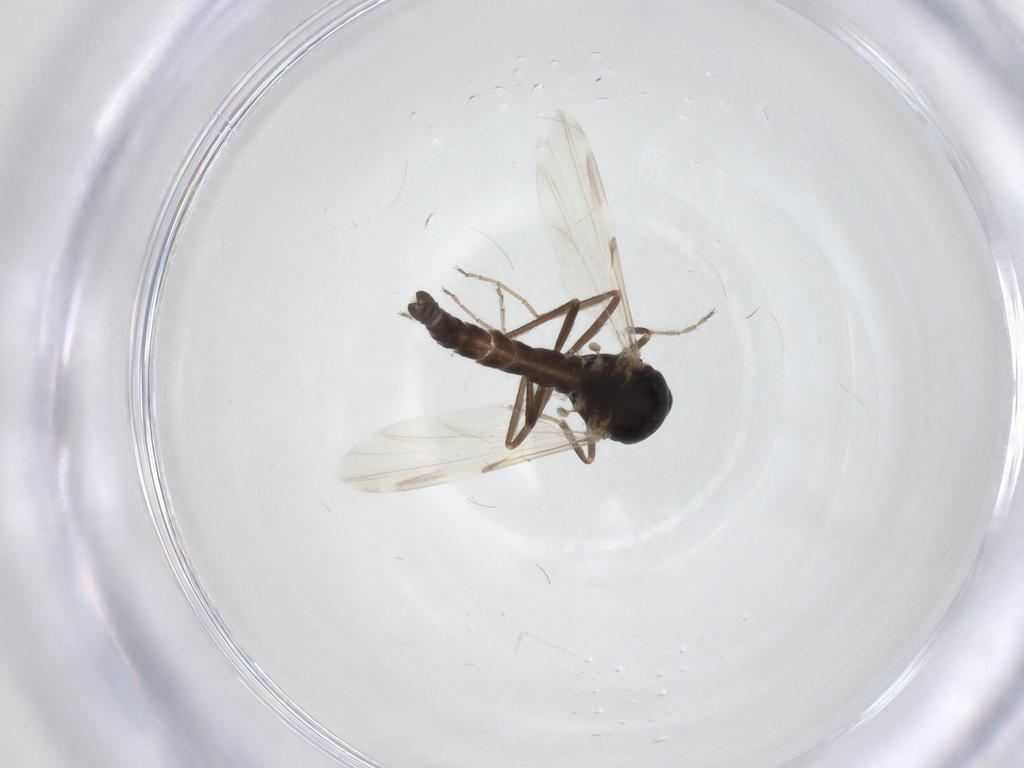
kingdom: Animalia
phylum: Arthropoda
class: Insecta
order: Diptera
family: Ceratopogonidae
